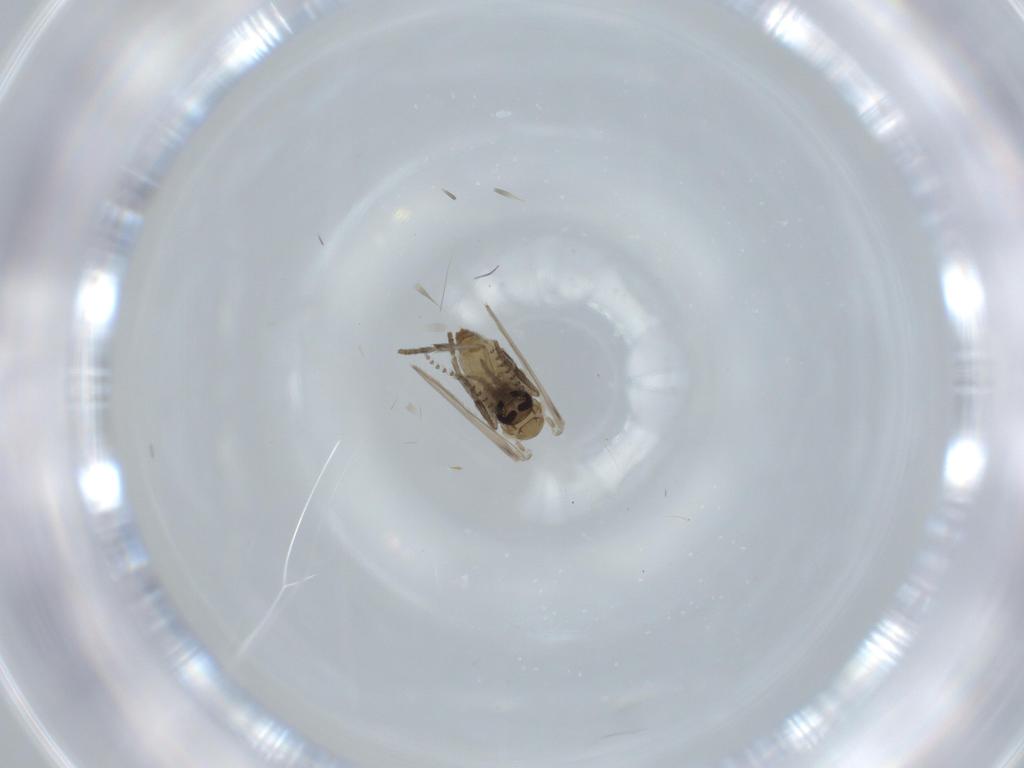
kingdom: Animalia
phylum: Arthropoda
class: Insecta
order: Diptera
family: Psychodidae
